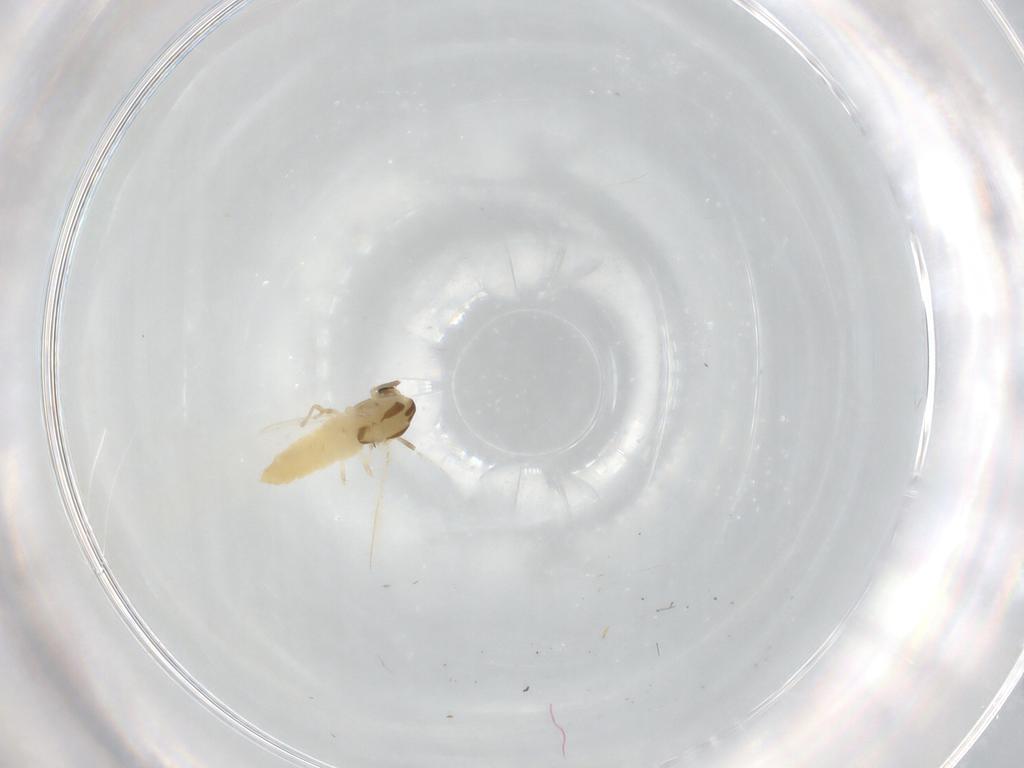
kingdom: Animalia
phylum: Arthropoda
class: Insecta
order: Diptera
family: Chironomidae
